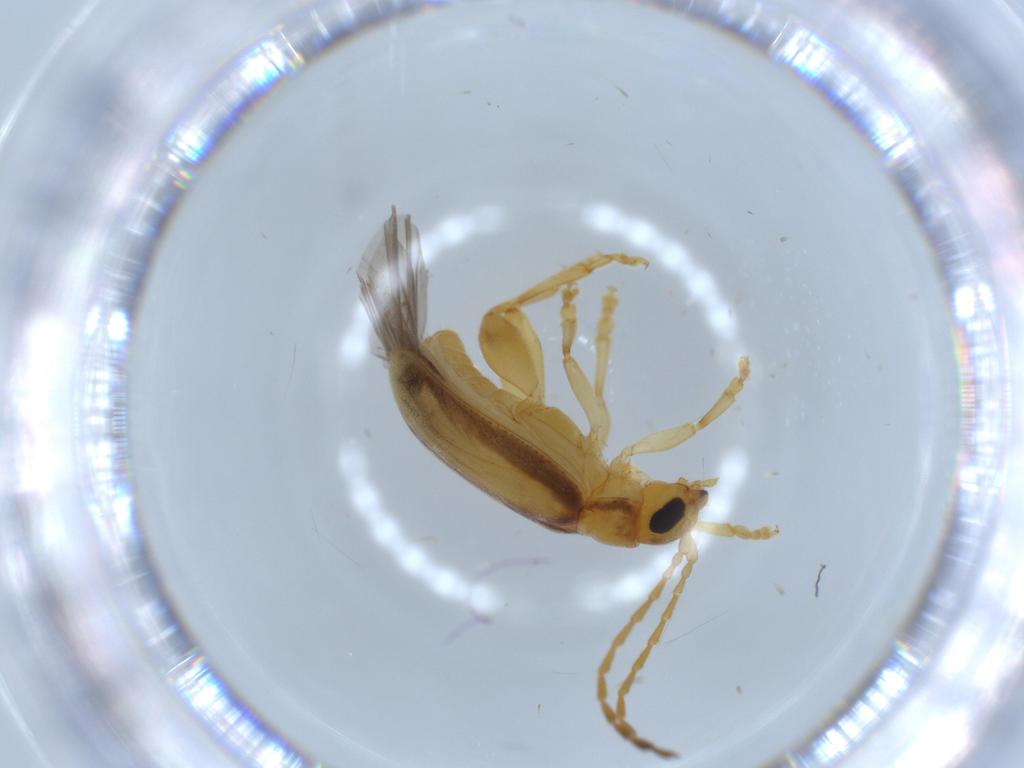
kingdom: Animalia
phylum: Arthropoda
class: Insecta
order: Coleoptera
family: Chrysomelidae
